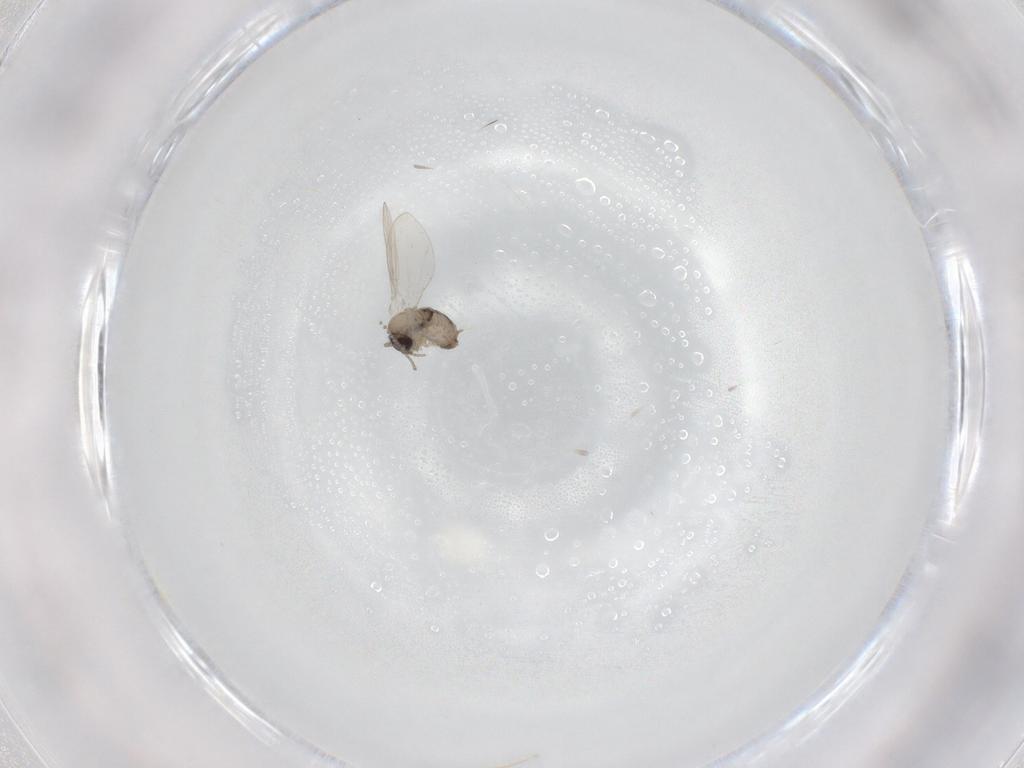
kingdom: Animalia
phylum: Arthropoda
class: Insecta
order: Diptera
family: Psychodidae
